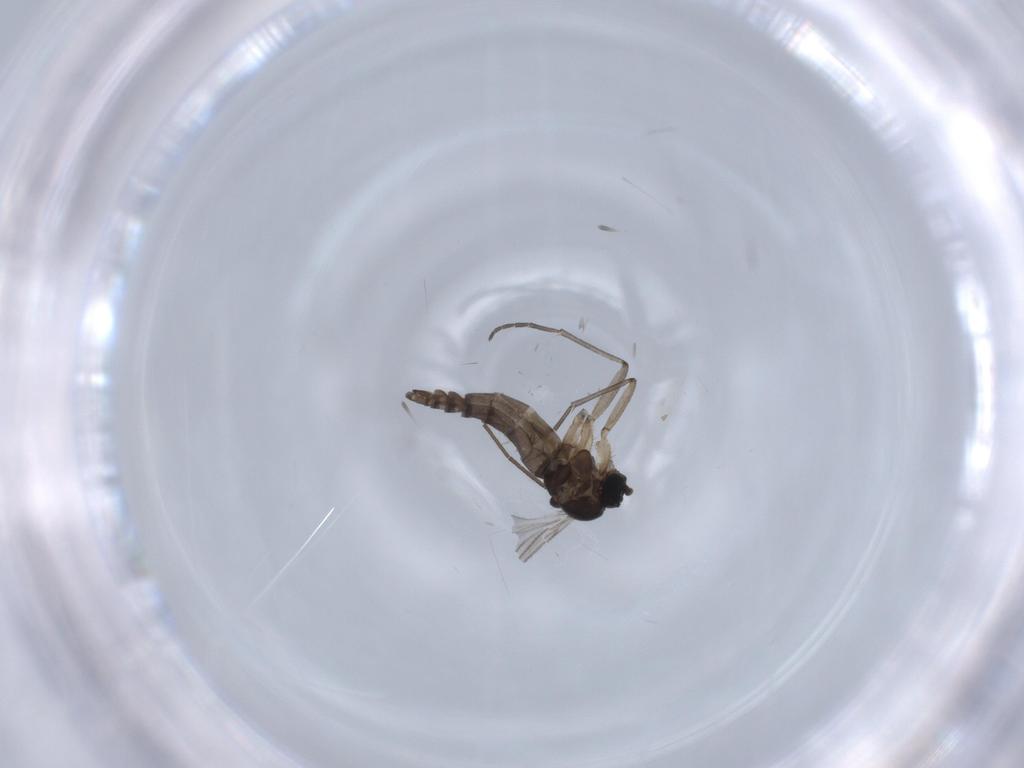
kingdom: Animalia
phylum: Arthropoda
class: Insecta
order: Diptera
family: Sciaridae
